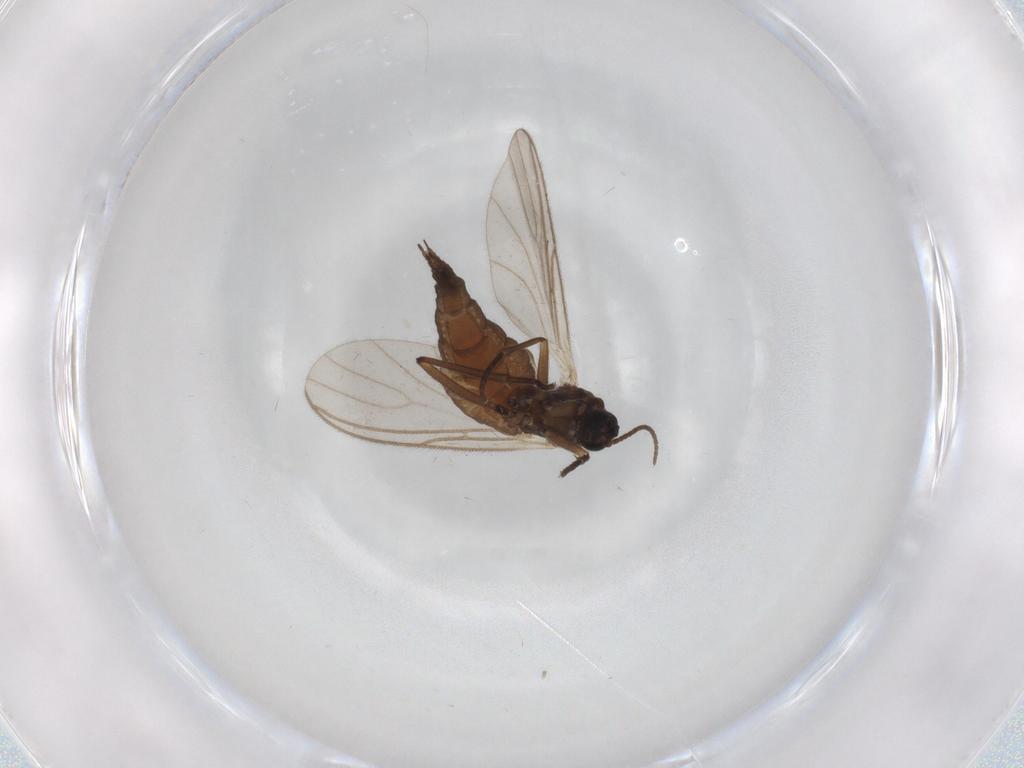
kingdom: Animalia
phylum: Arthropoda
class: Insecta
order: Diptera
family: Sciaridae
